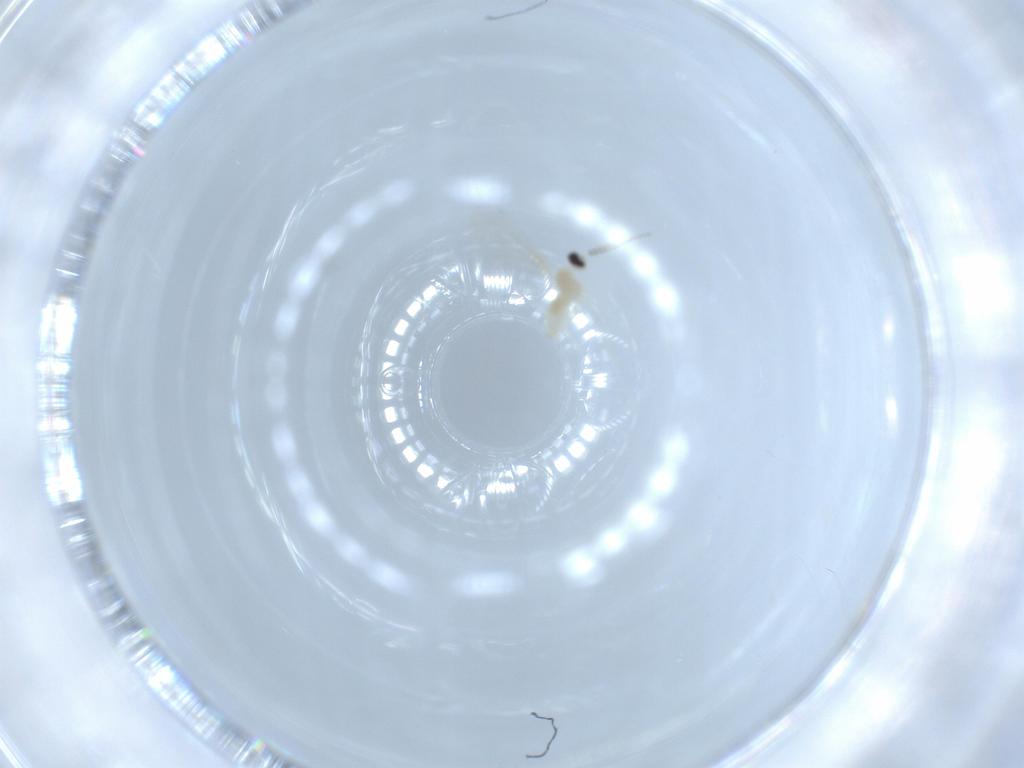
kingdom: Animalia
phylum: Arthropoda
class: Insecta
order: Diptera
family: Cecidomyiidae
